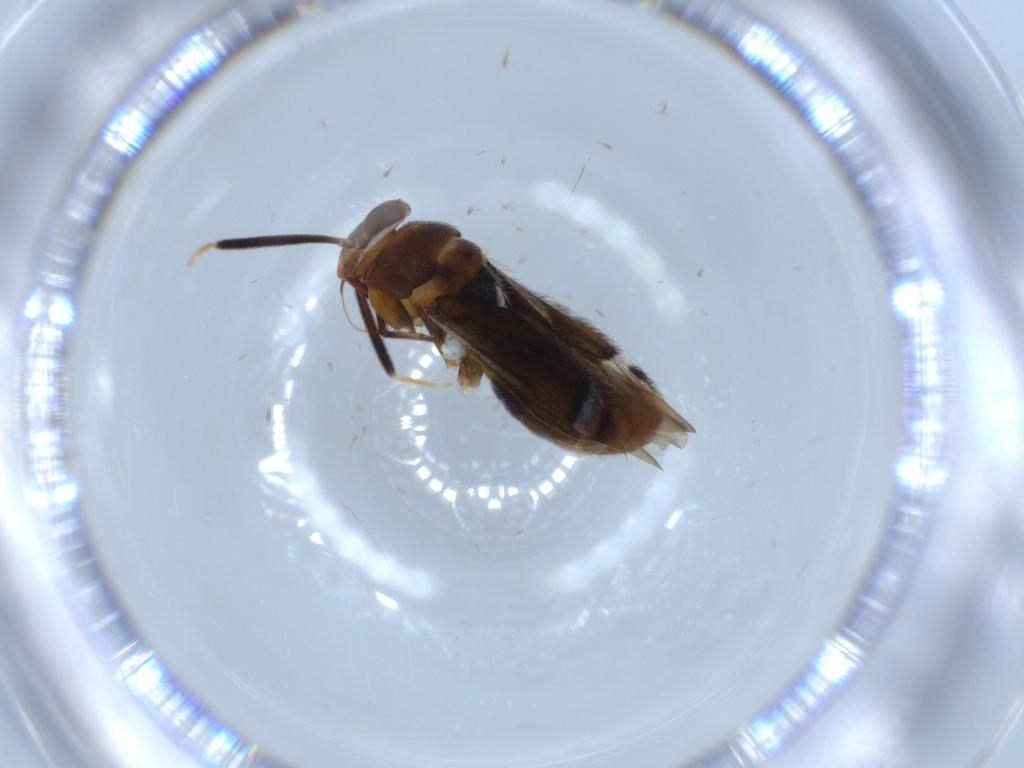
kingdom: Animalia
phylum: Arthropoda
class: Insecta
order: Hemiptera
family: Miridae
